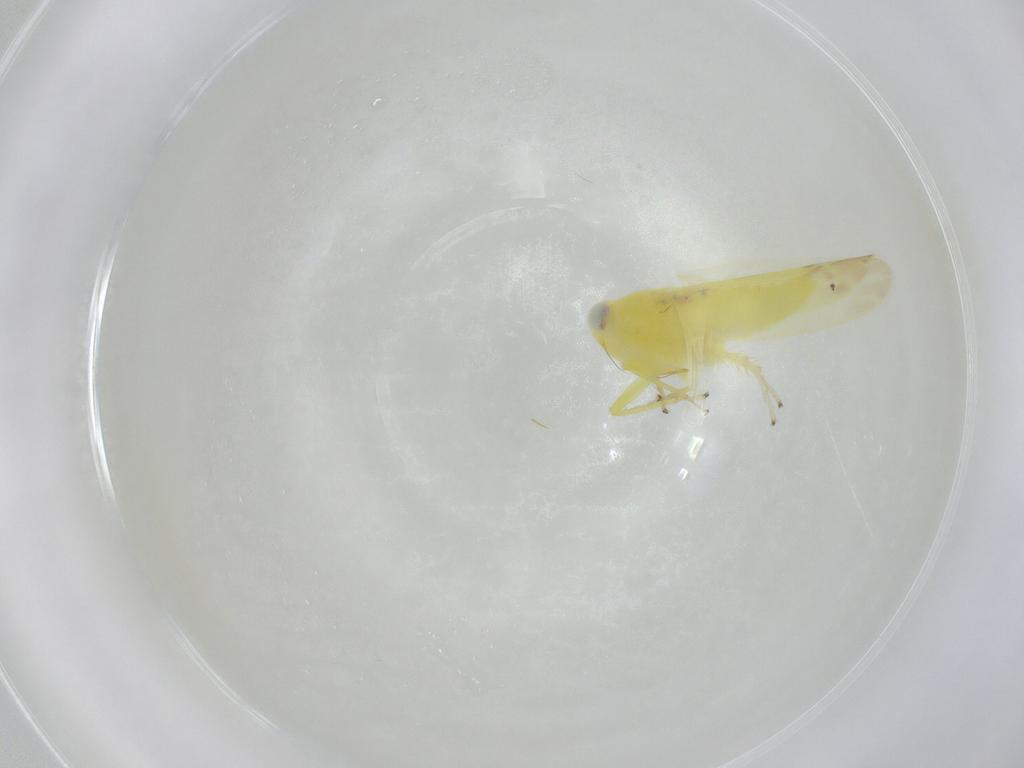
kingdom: Animalia
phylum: Arthropoda
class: Insecta
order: Hemiptera
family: Cicadellidae
